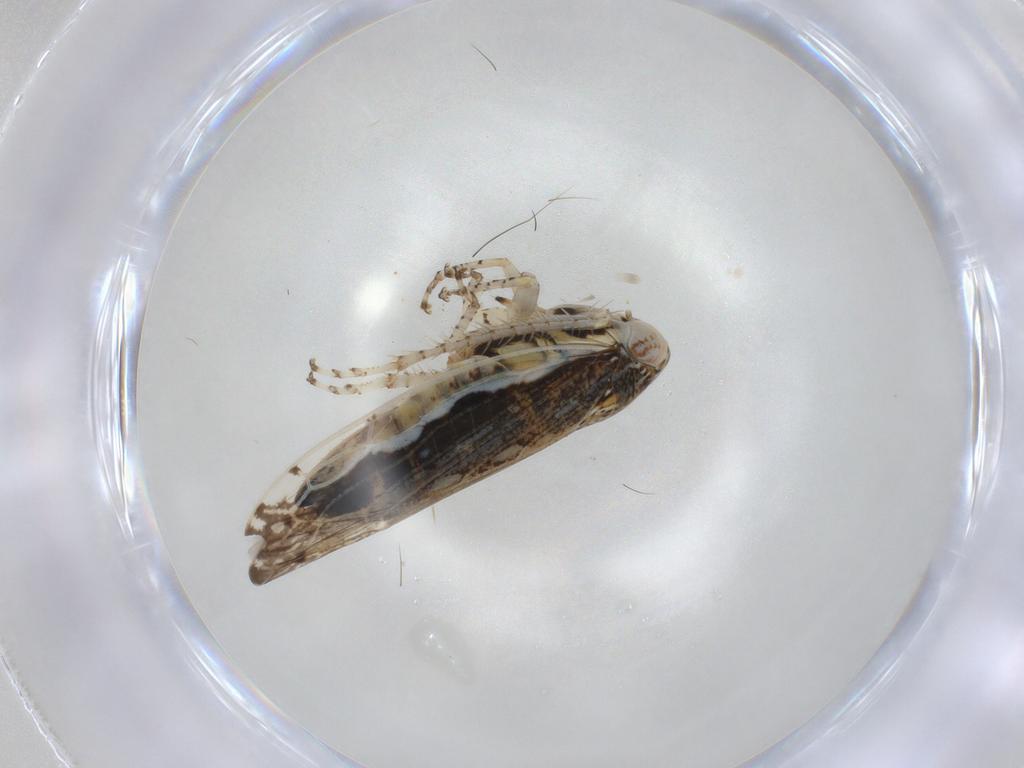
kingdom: Animalia
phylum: Arthropoda
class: Insecta
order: Hemiptera
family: Cicadellidae
